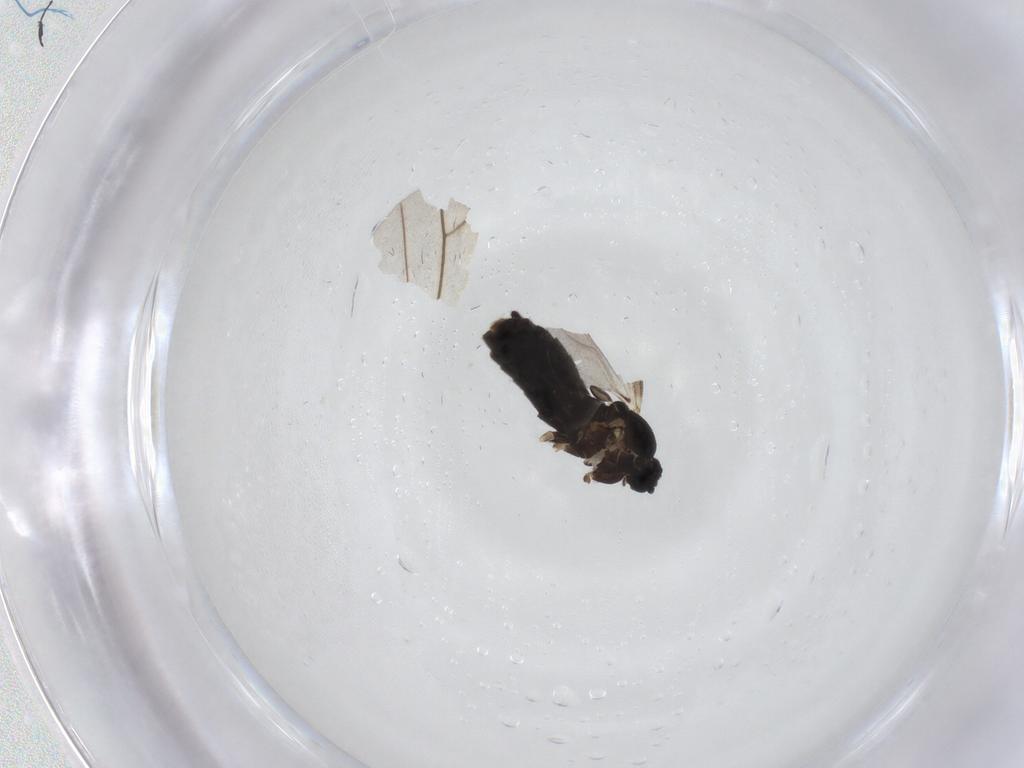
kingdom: Animalia
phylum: Arthropoda
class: Insecta
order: Diptera
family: Scatopsidae
